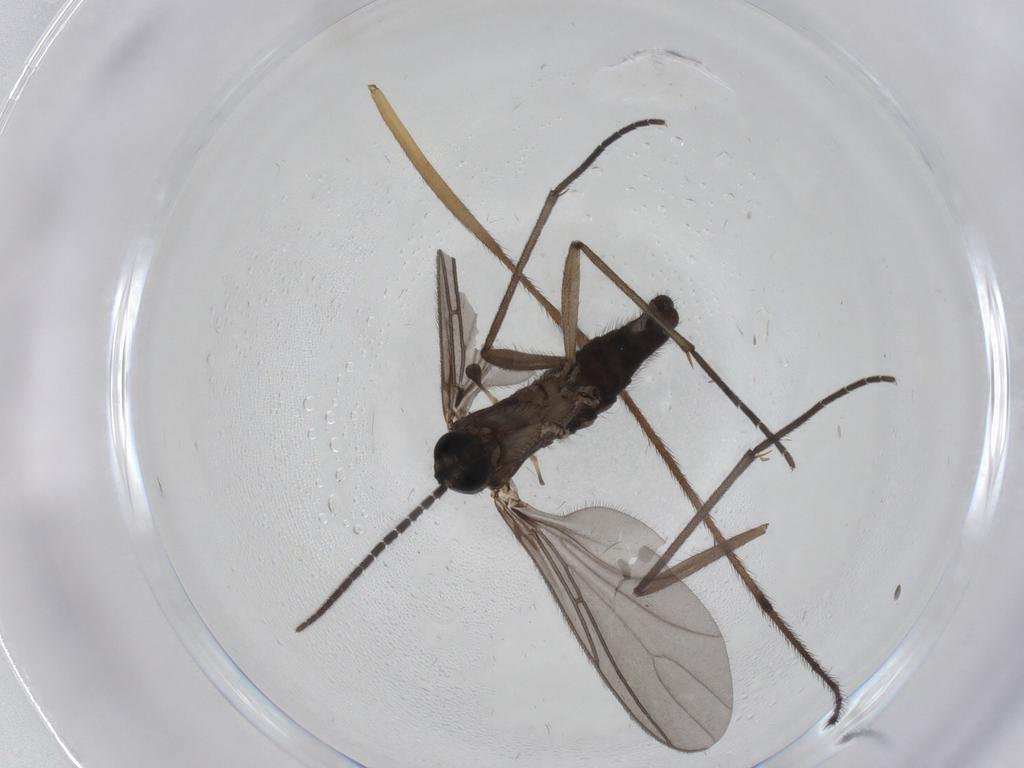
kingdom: Animalia
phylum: Arthropoda
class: Insecta
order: Diptera
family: Sciaridae
